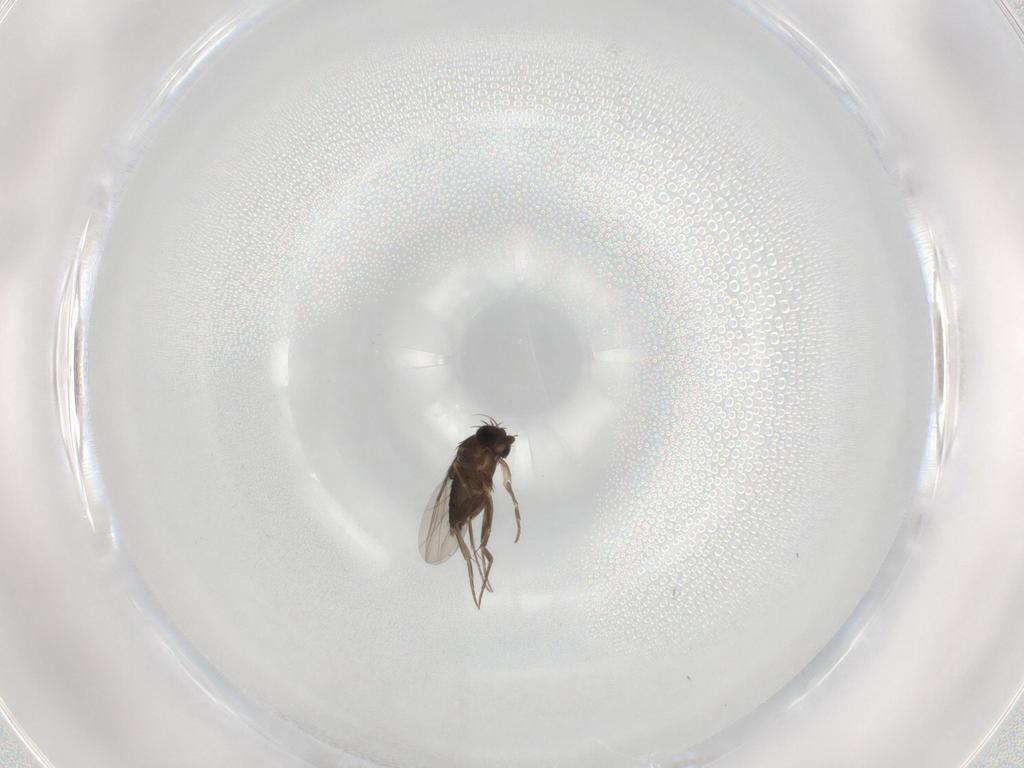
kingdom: Animalia
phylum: Arthropoda
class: Insecta
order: Diptera
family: Phoridae
